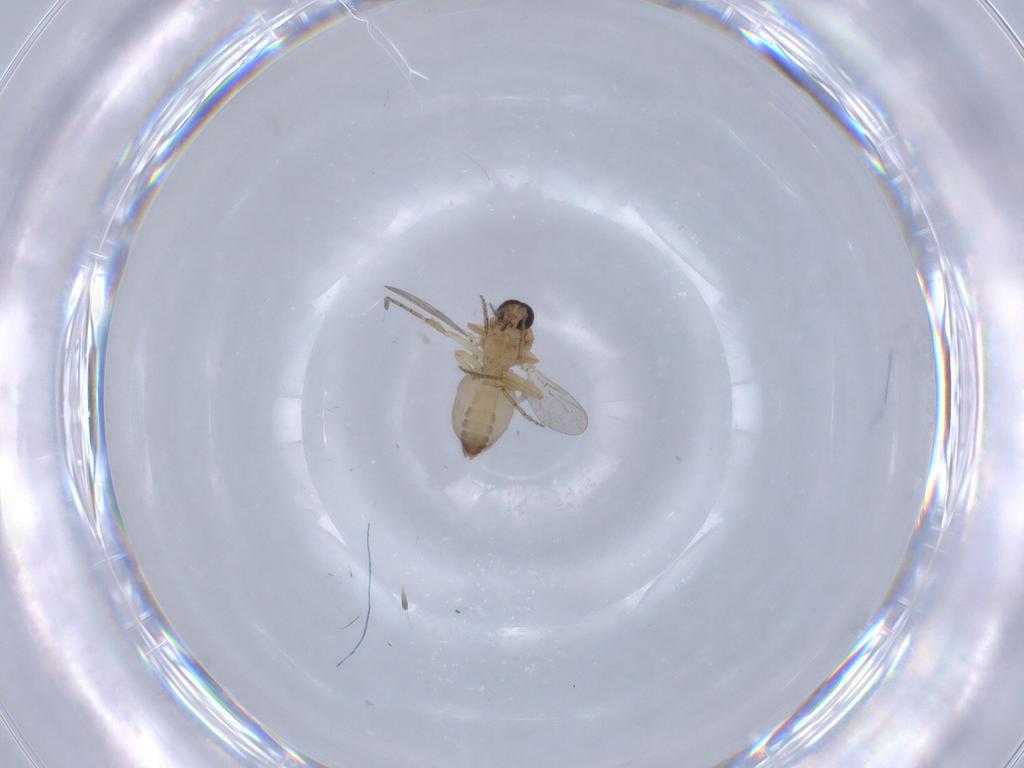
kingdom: Animalia
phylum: Arthropoda
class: Insecta
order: Diptera
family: Ceratopogonidae
